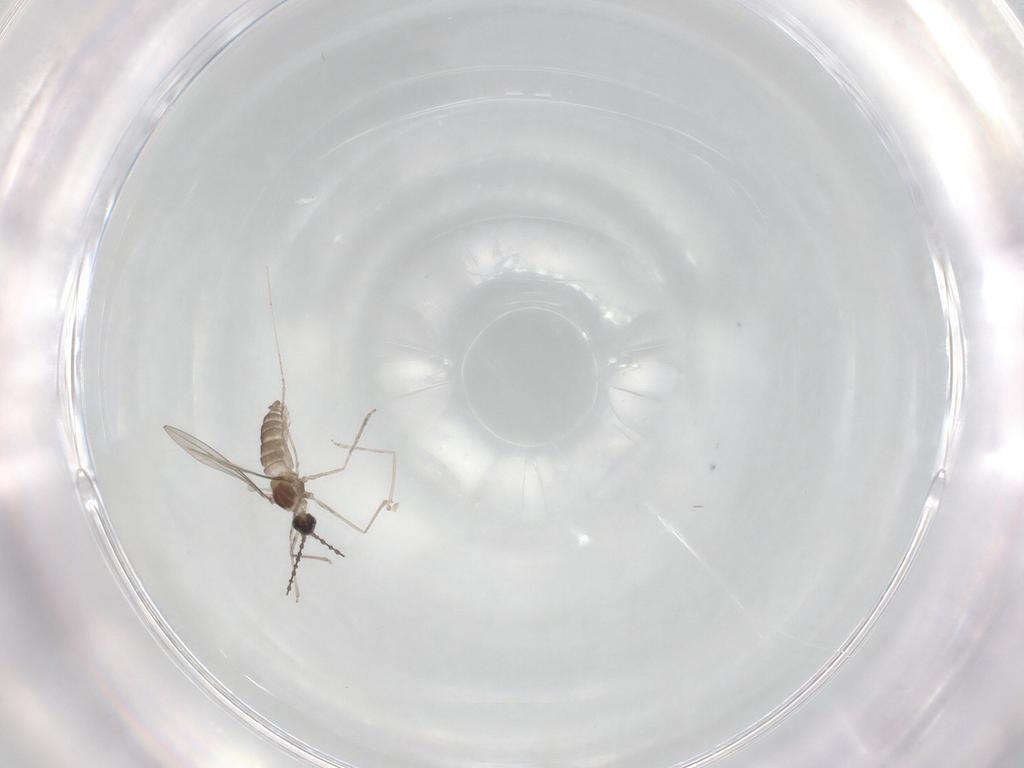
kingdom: Animalia
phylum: Arthropoda
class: Insecta
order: Diptera
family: Cecidomyiidae
